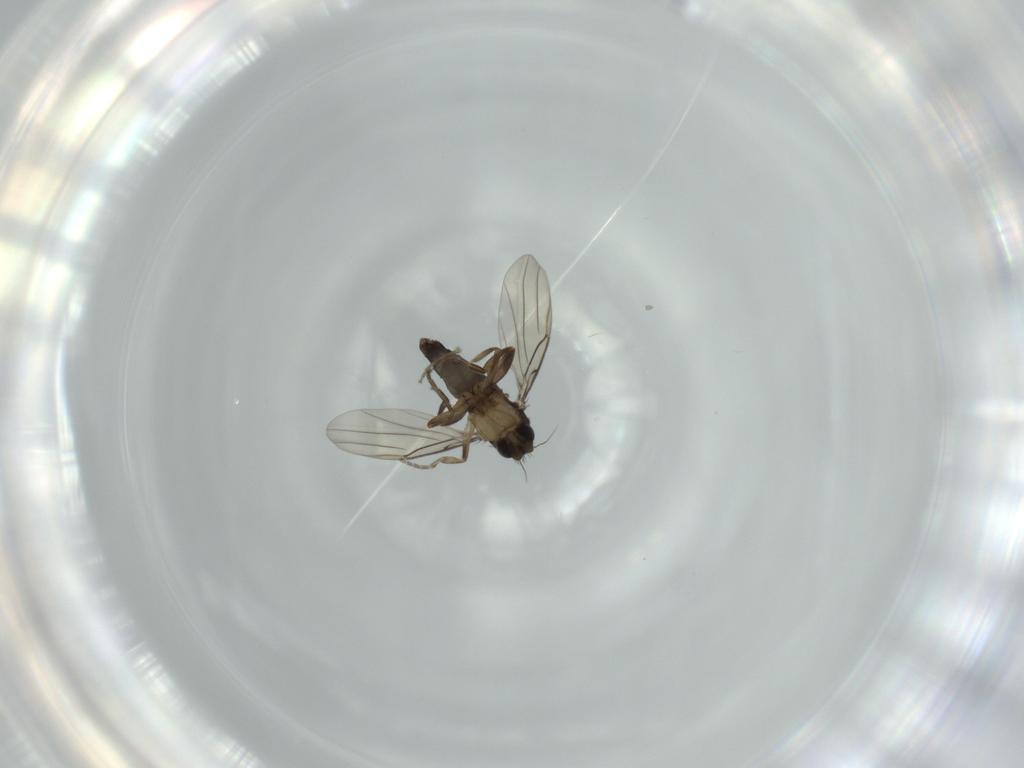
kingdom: Animalia
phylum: Arthropoda
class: Insecta
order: Diptera
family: Phoridae
